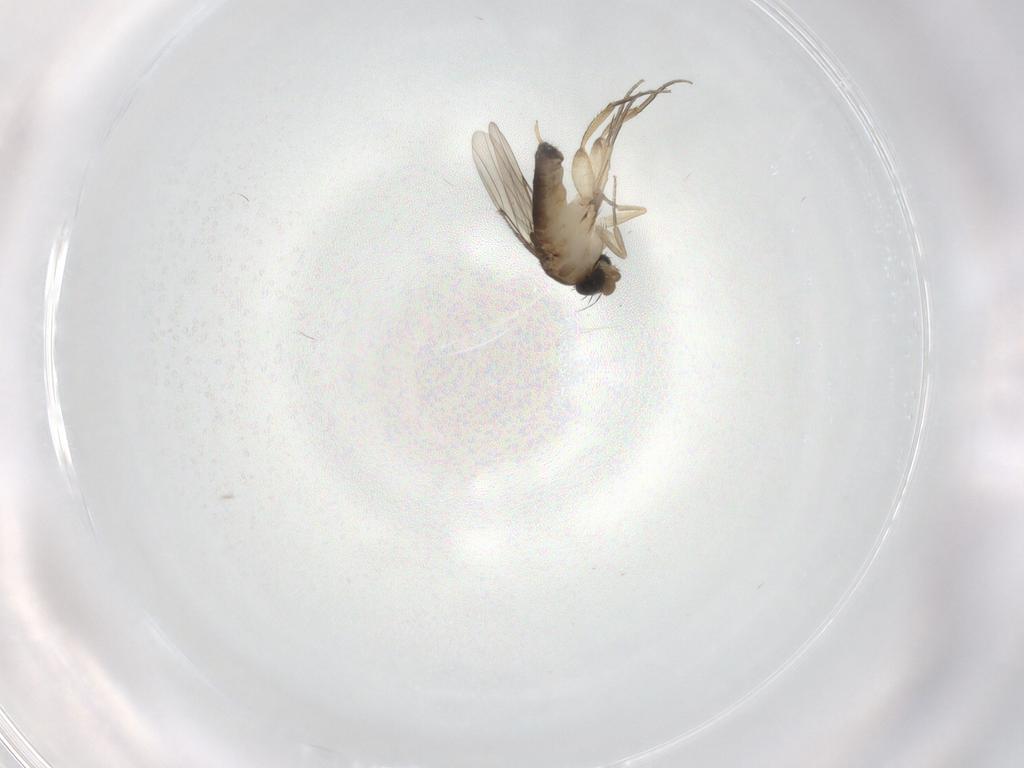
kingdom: Animalia
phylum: Arthropoda
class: Insecta
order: Diptera
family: Phoridae
